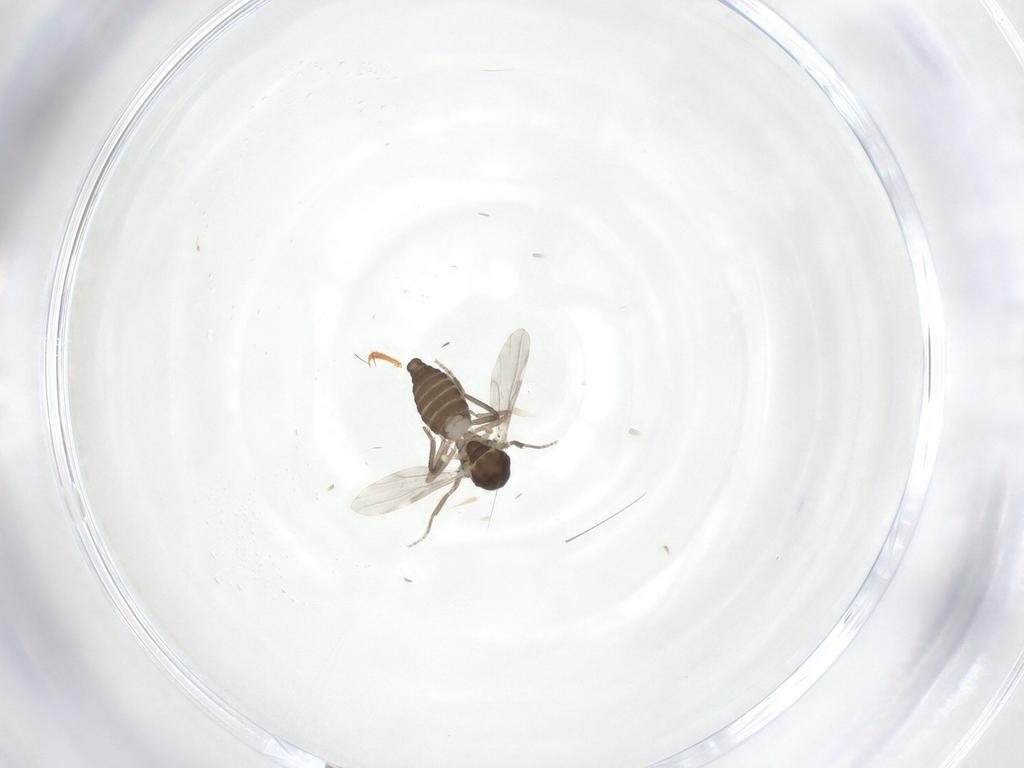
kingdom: Animalia
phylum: Arthropoda
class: Insecta
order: Diptera
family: Ceratopogonidae
